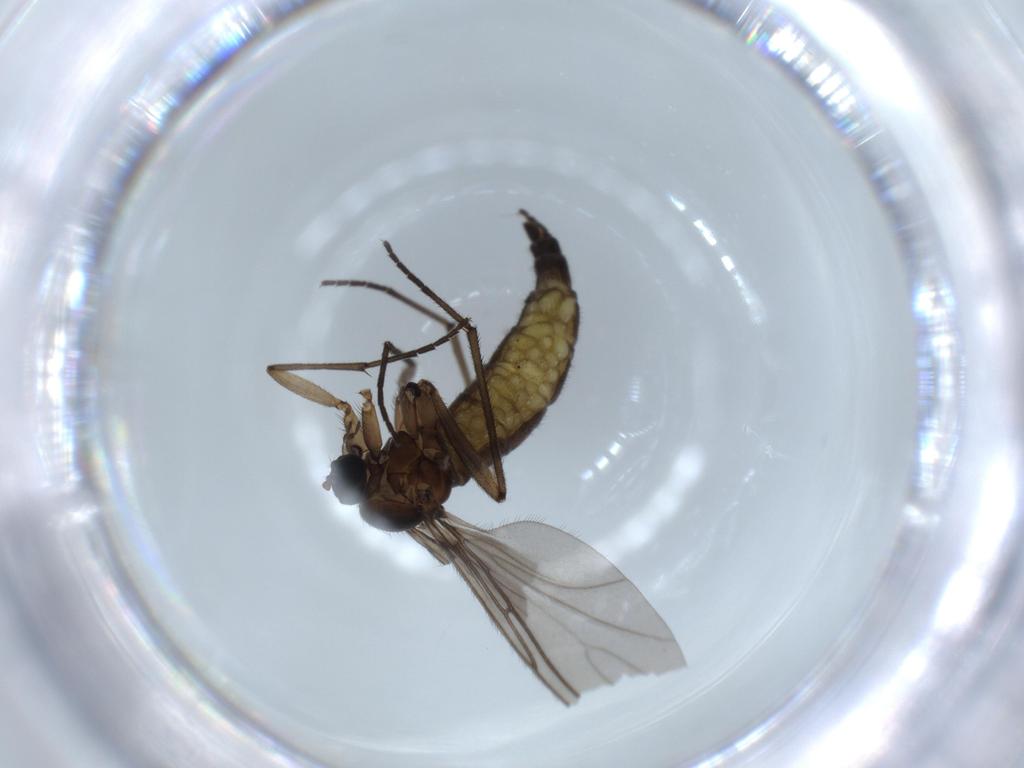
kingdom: Animalia
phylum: Arthropoda
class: Insecta
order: Diptera
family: Sciaridae
